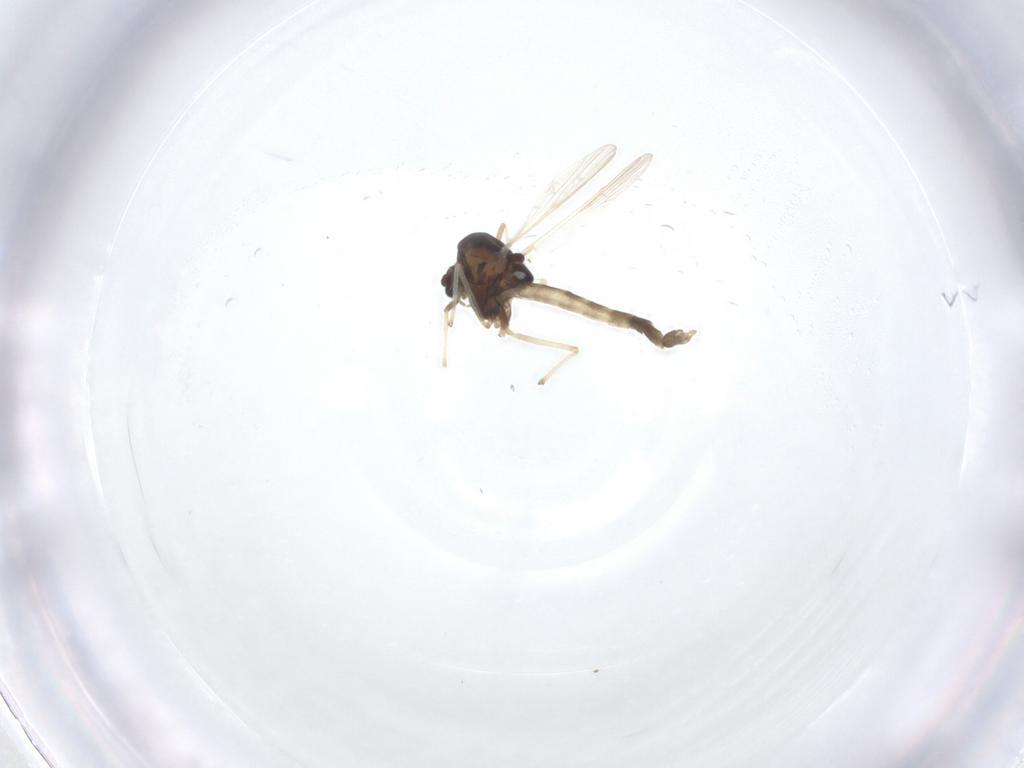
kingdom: Animalia
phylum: Arthropoda
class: Insecta
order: Diptera
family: Chironomidae
